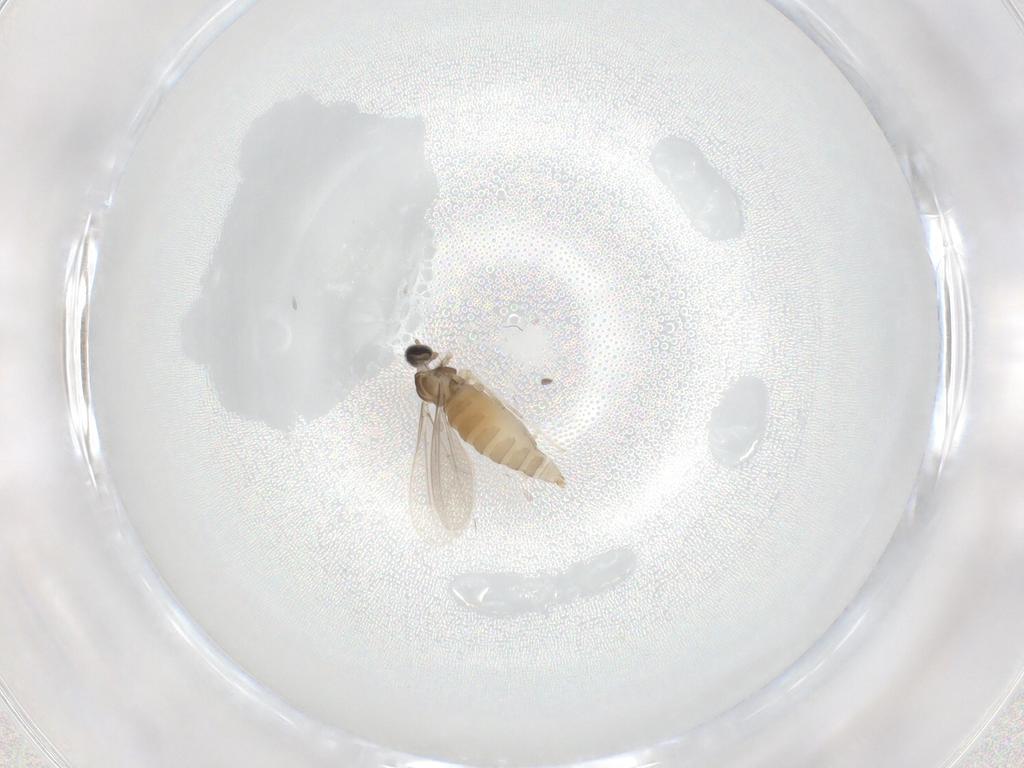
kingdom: Animalia
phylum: Arthropoda
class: Insecta
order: Diptera
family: Cecidomyiidae
